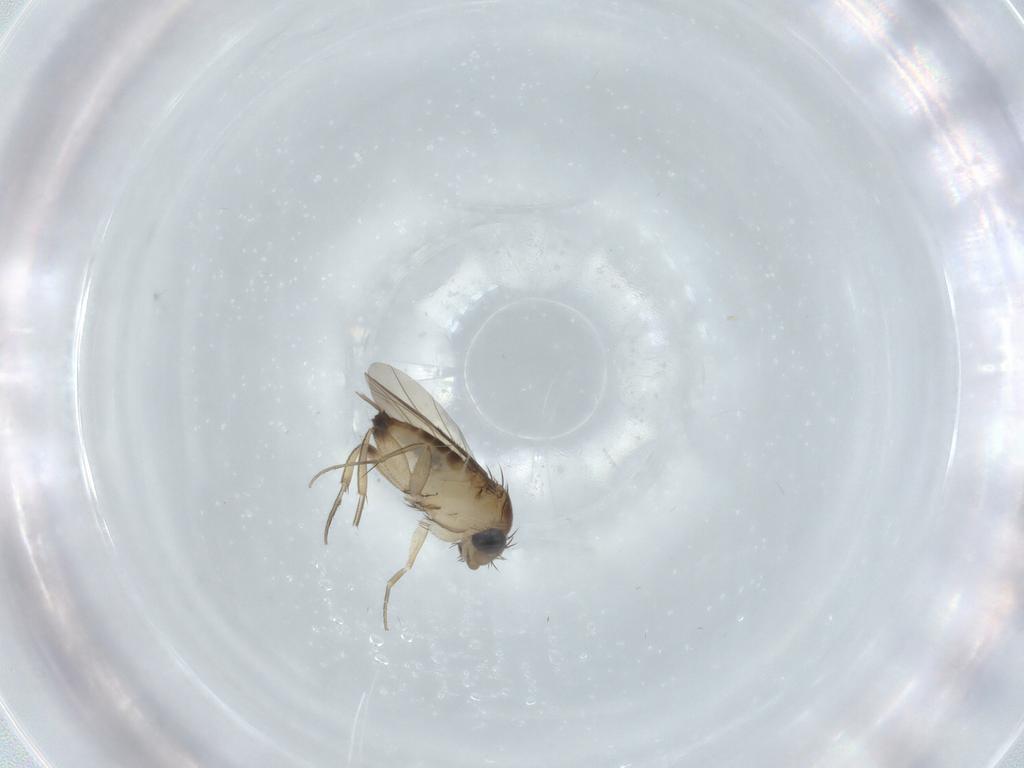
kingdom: Animalia
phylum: Arthropoda
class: Insecta
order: Diptera
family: Phoridae
